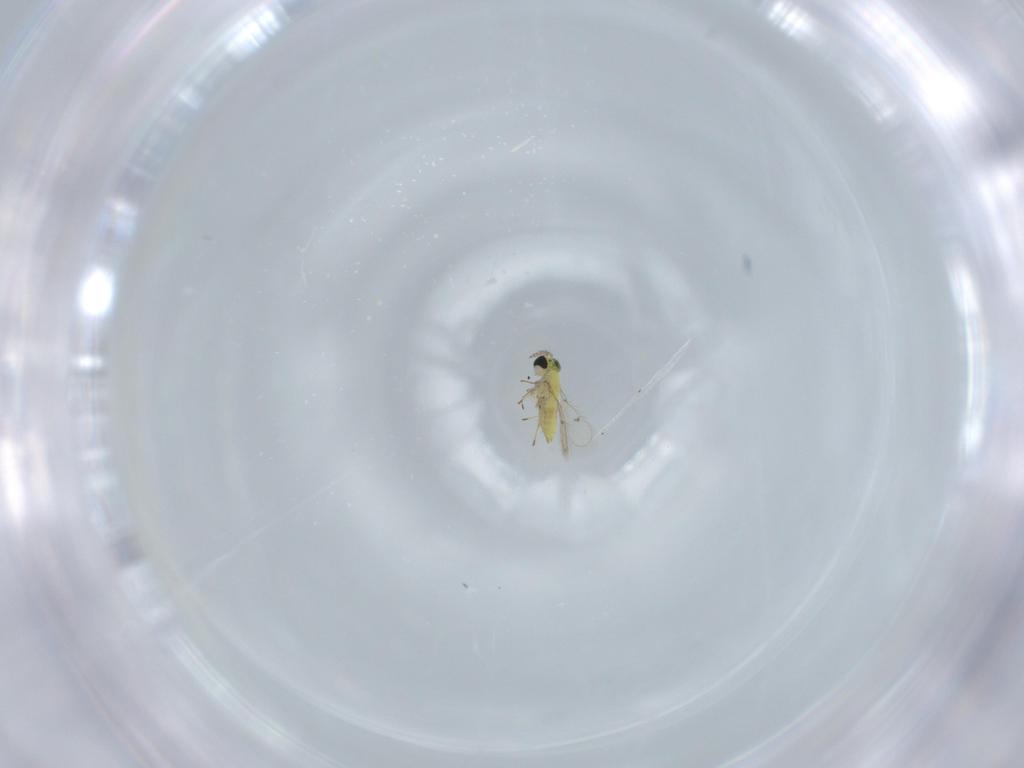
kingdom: Animalia
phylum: Arthropoda
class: Insecta
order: Hymenoptera
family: Trichogrammatidae
